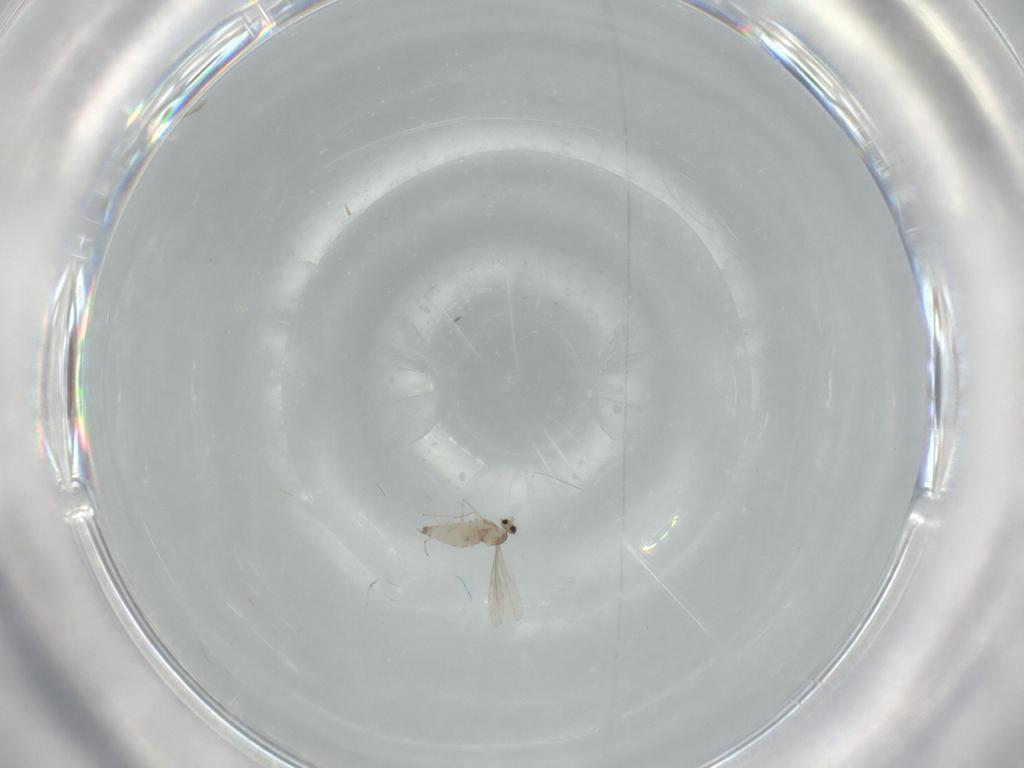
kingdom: Animalia
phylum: Arthropoda
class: Insecta
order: Diptera
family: Cecidomyiidae
